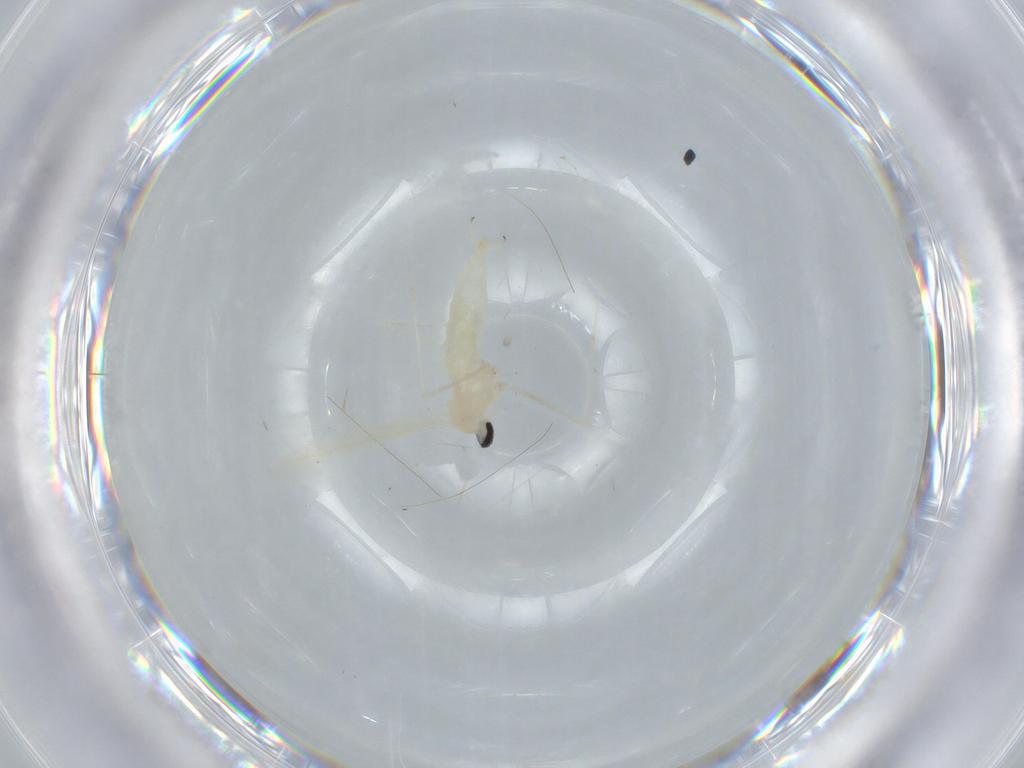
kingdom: Animalia
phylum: Arthropoda
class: Insecta
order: Diptera
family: Cecidomyiidae
